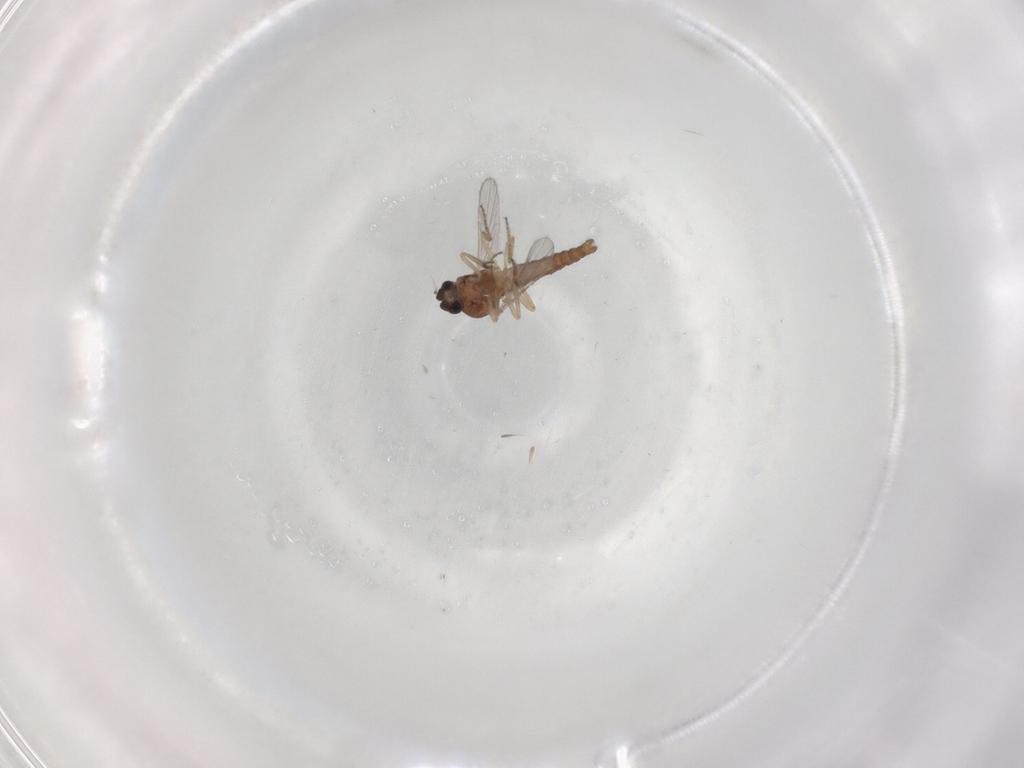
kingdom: Animalia
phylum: Arthropoda
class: Insecta
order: Diptera
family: Ceratopogonidae
